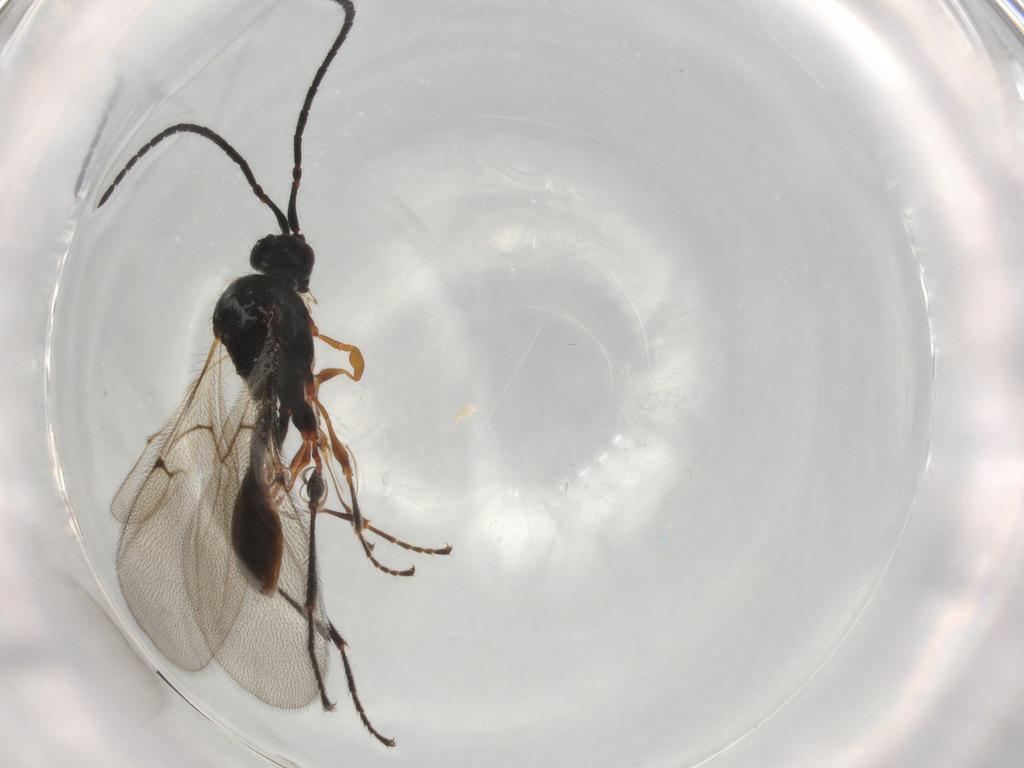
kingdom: Animalia
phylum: Arthropoda
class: Insecta
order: Hymenoptera
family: Diapriidae
